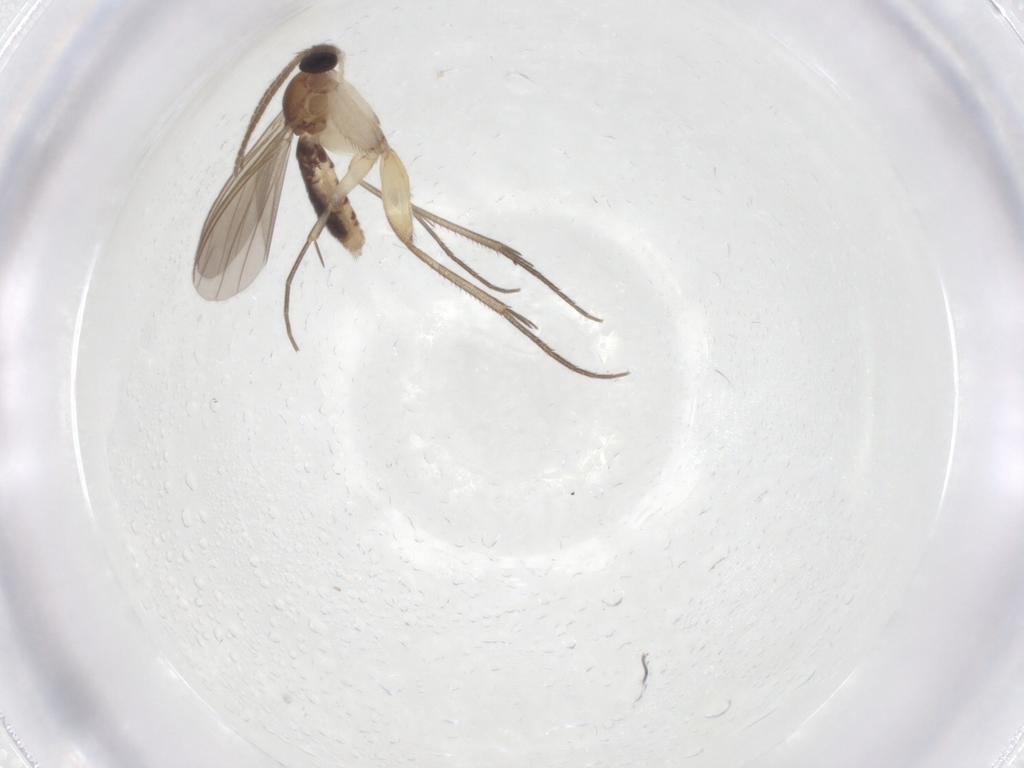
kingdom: Animalia
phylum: Arthropoda
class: Insecta
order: Diptera
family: Mycetophilidae
